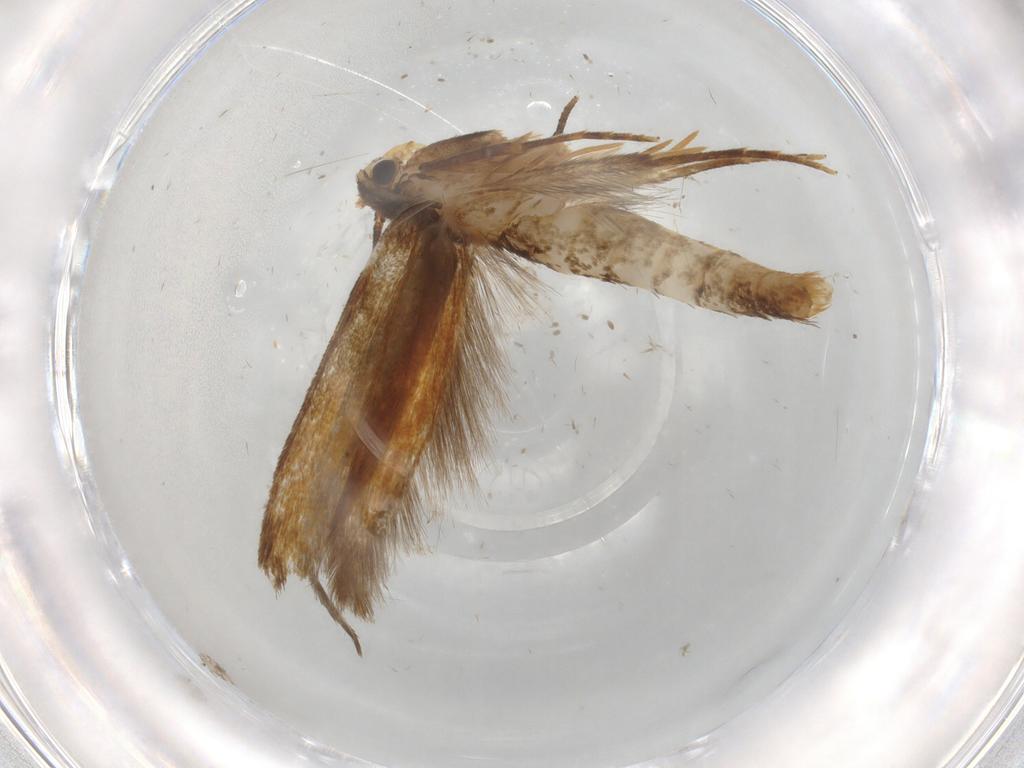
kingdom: Animalia
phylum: Arthropoda
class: Insecta
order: Lepidoptera
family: Tineidae
